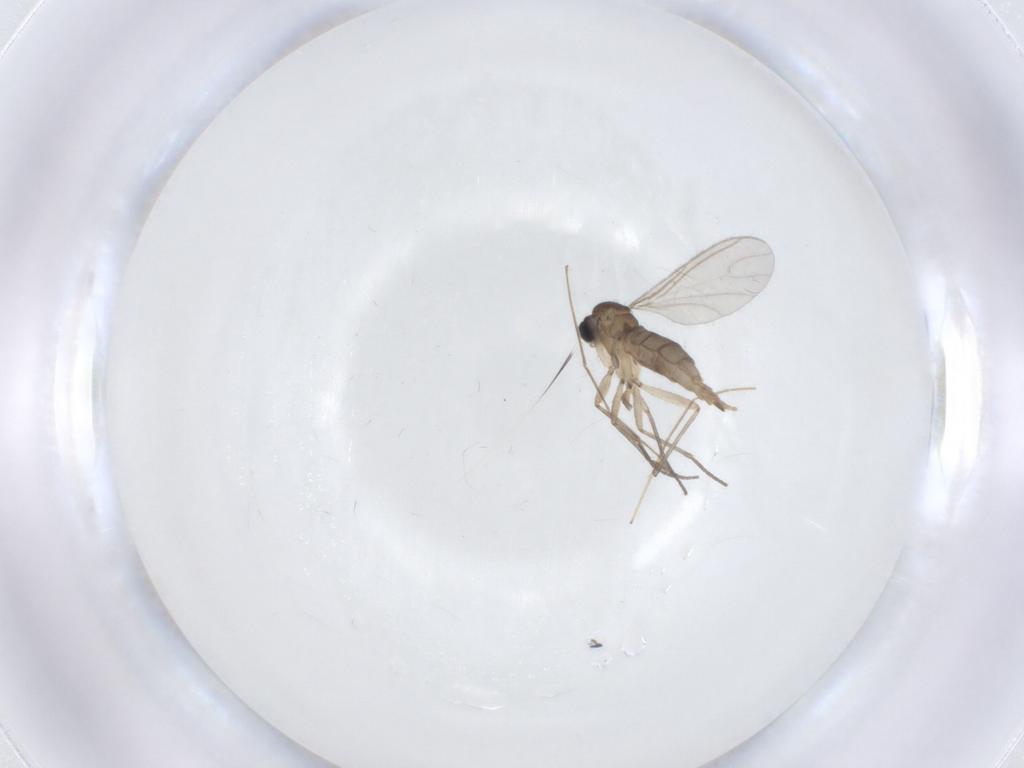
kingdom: Animalia
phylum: Arthropoda
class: Insecta
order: Diptera
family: Sciaridae
